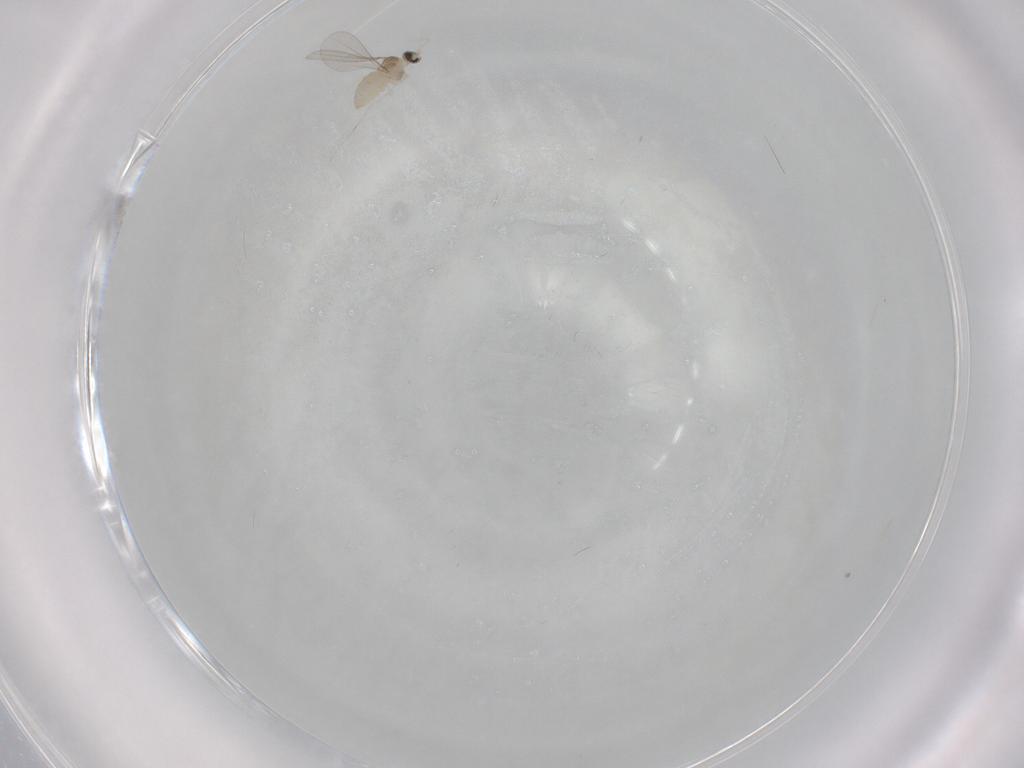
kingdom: Animalia
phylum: Arthropoda
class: Insecta
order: Diptera
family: Cecidomyiidae
